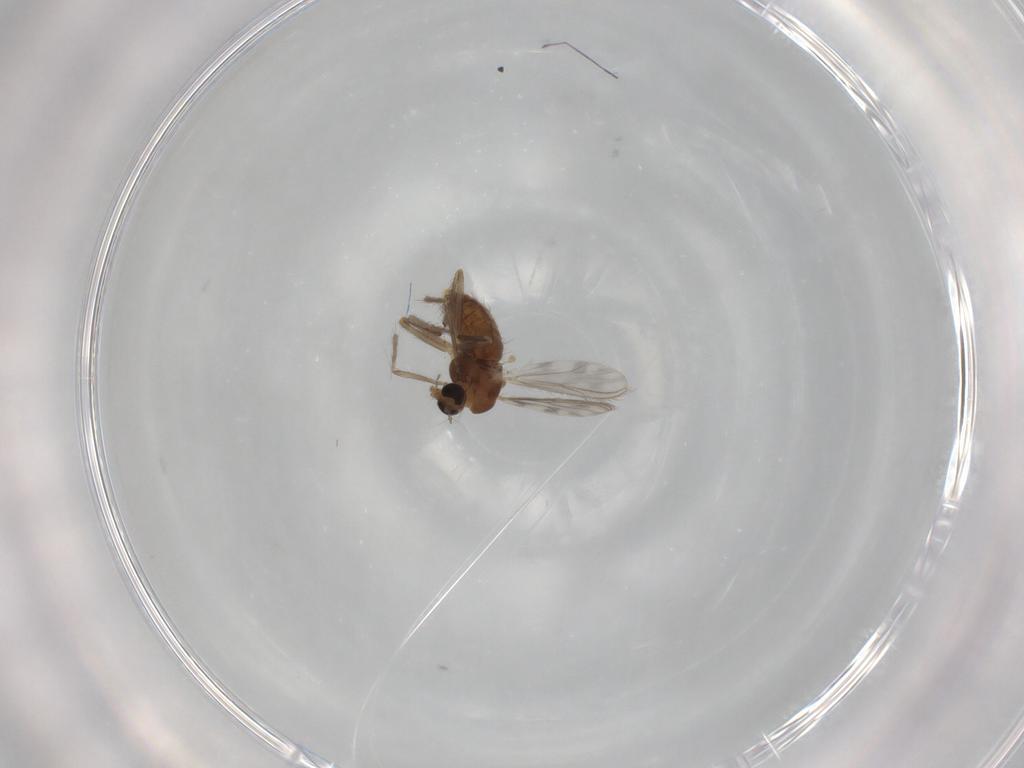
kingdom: Animalia
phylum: Arthropoda
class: Insecta
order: Diptera
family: Chironomidae
